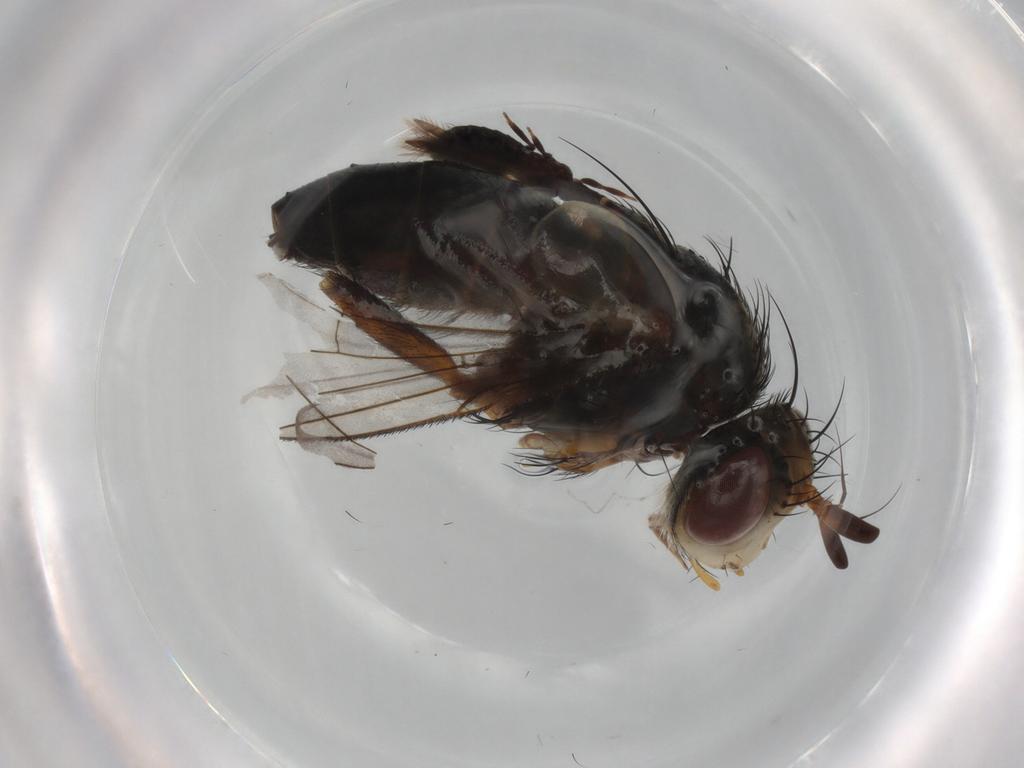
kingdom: Animalia
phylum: Arthropoda
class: Insecta
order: Diptera
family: Tachinidae
